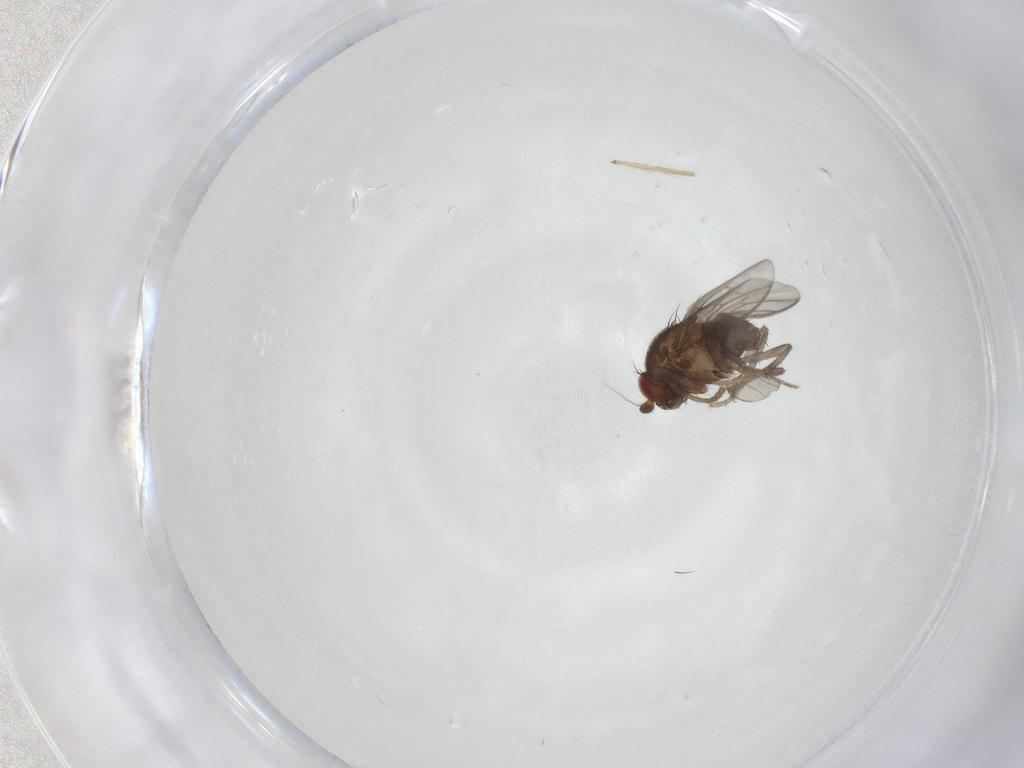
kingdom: Animalia
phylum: Arthropoda
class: Insecta
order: Diptera
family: Sphaeroceridae
